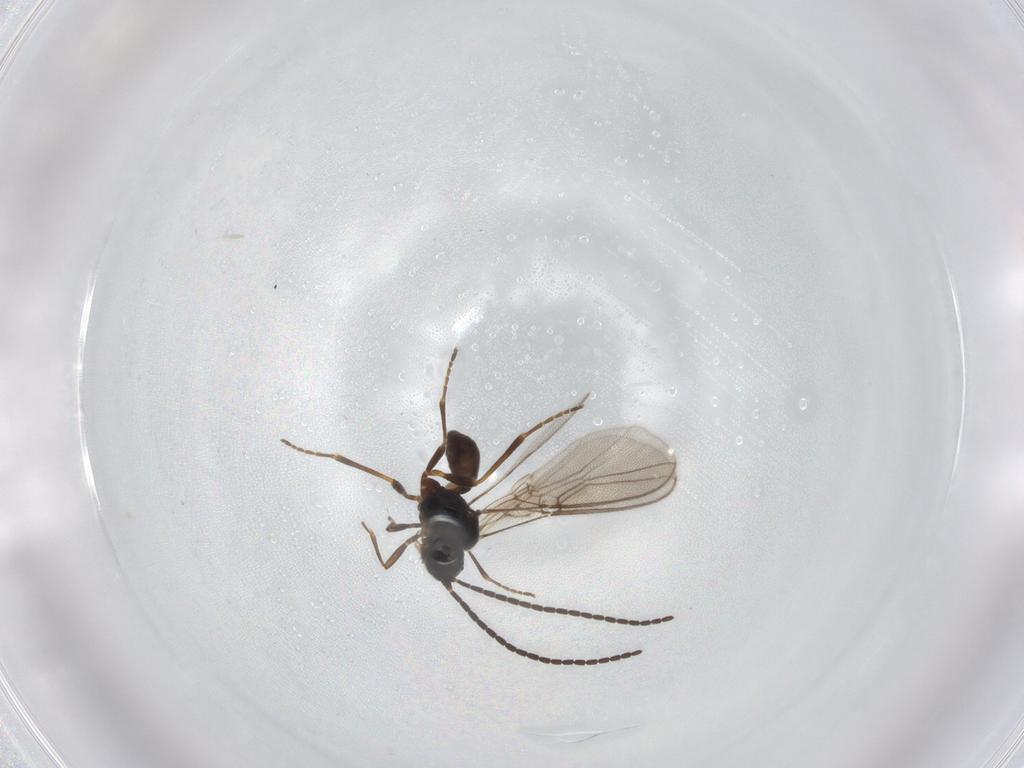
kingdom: Animalia
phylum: Arthropoda
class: Insecta
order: Hymenoptera
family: Braconidae
